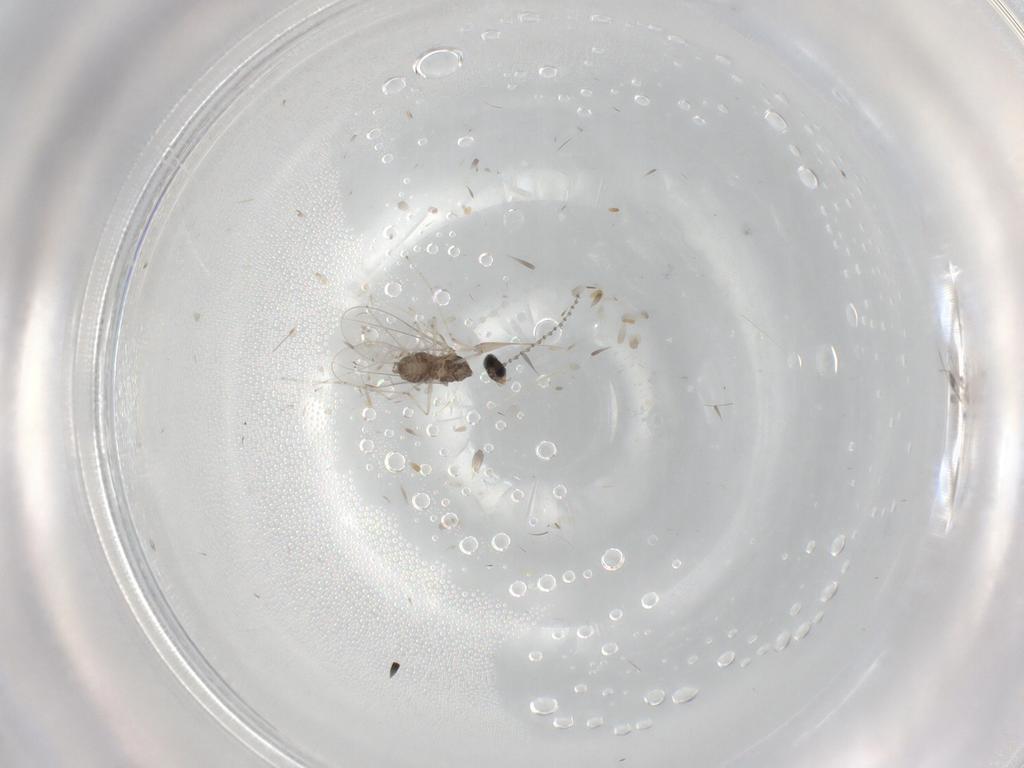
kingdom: Animalia
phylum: Arthropoda
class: Insecta
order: Diptera
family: Cecidomyiidae
